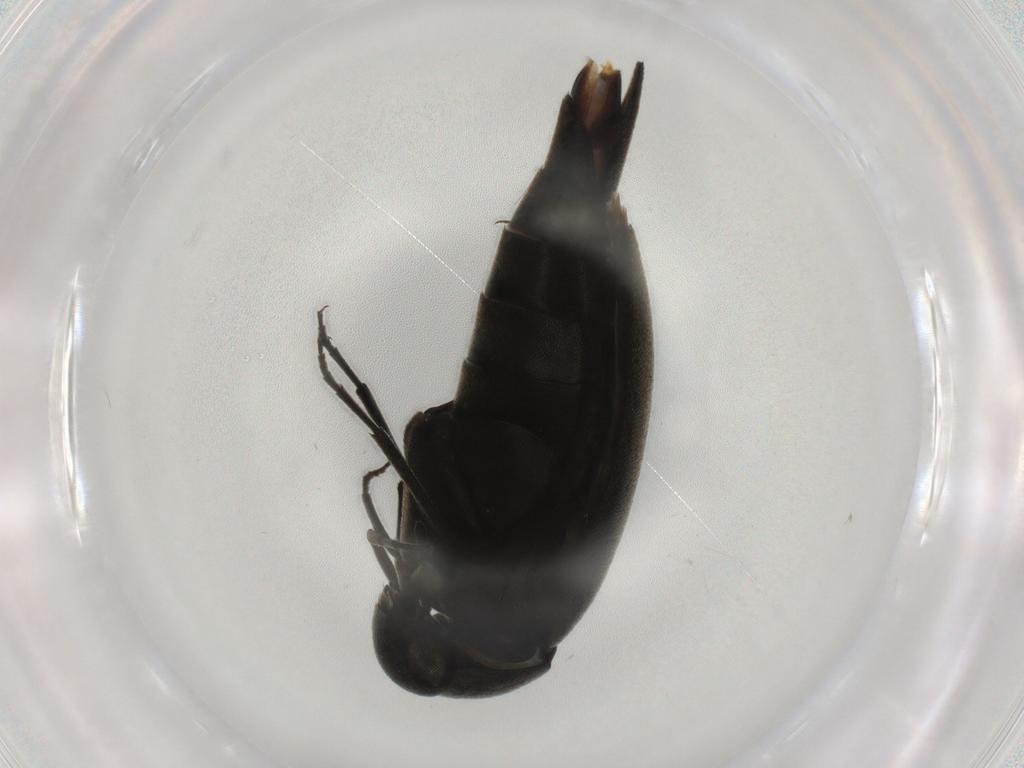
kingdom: Animalia
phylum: Arthropoda
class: Insecta
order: Coleoptera
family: Mordellidae
